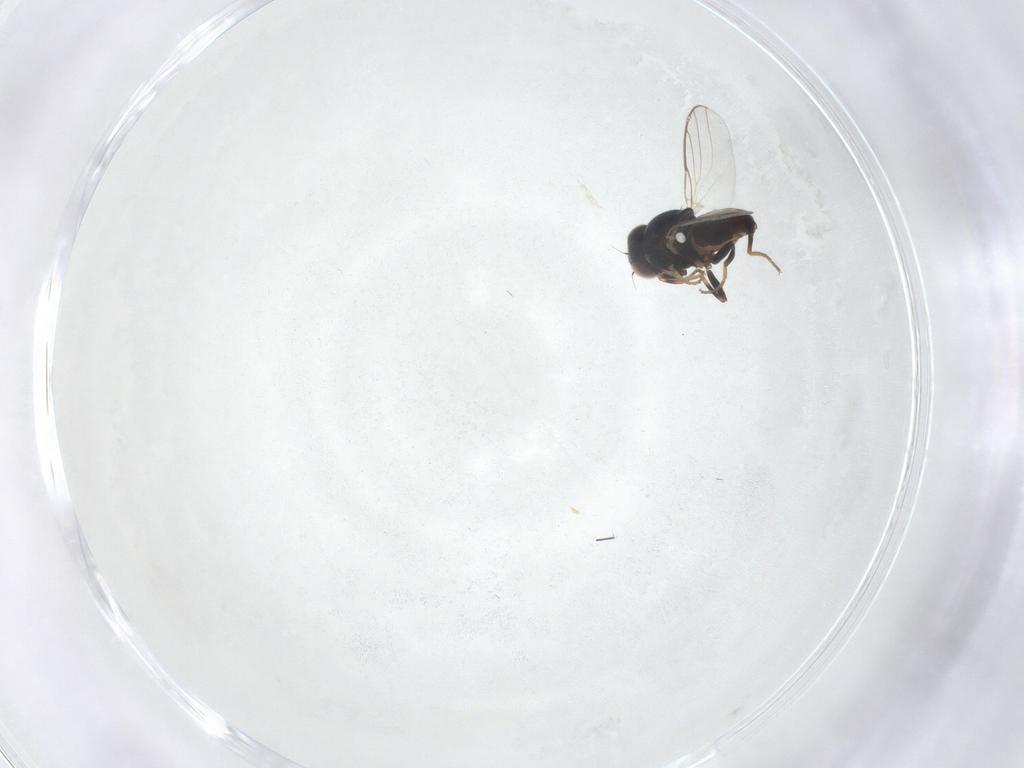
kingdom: Animalia
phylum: Arthropoda
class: Insecta
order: Diptera
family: Chloropidae
